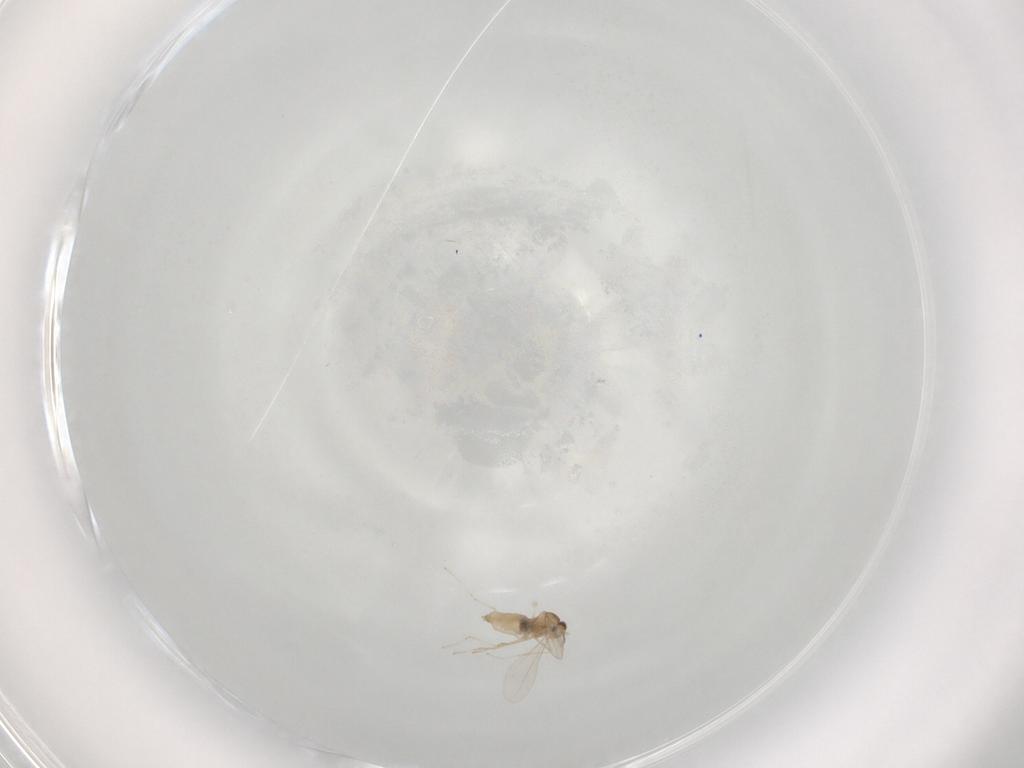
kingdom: Animalia
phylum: Arthropoda
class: Insecta
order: Diptera
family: Cecidomyiidae
